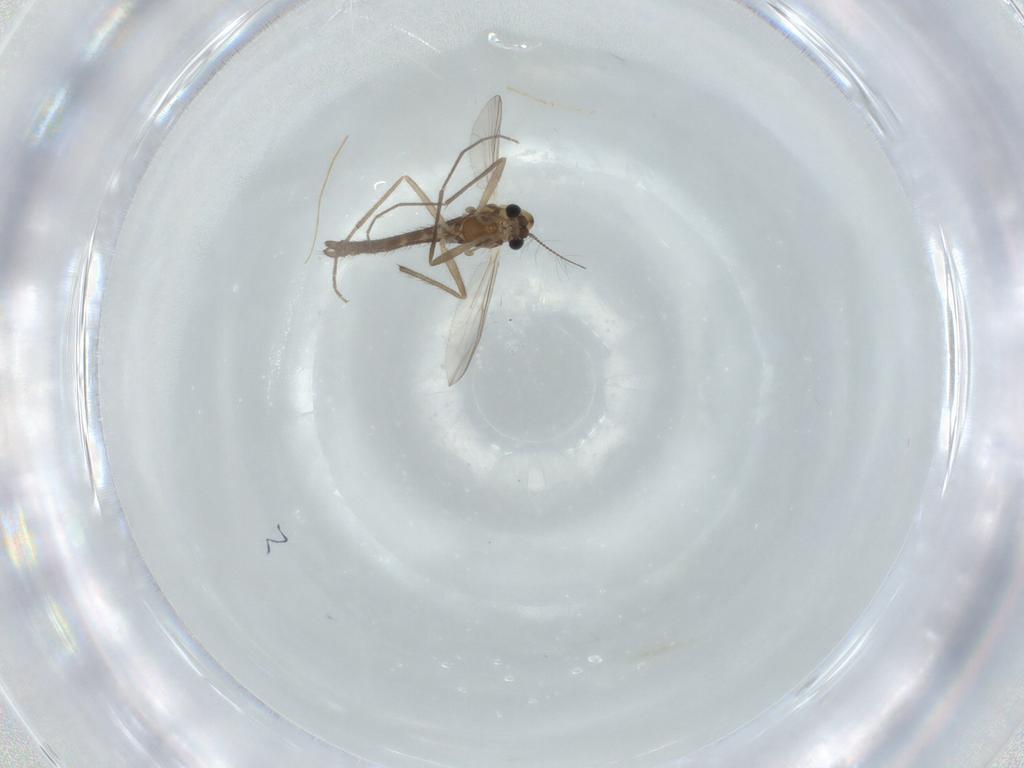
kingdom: Animalia
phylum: Arthropoda
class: Insecta
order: Diptera
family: Chironomidae
